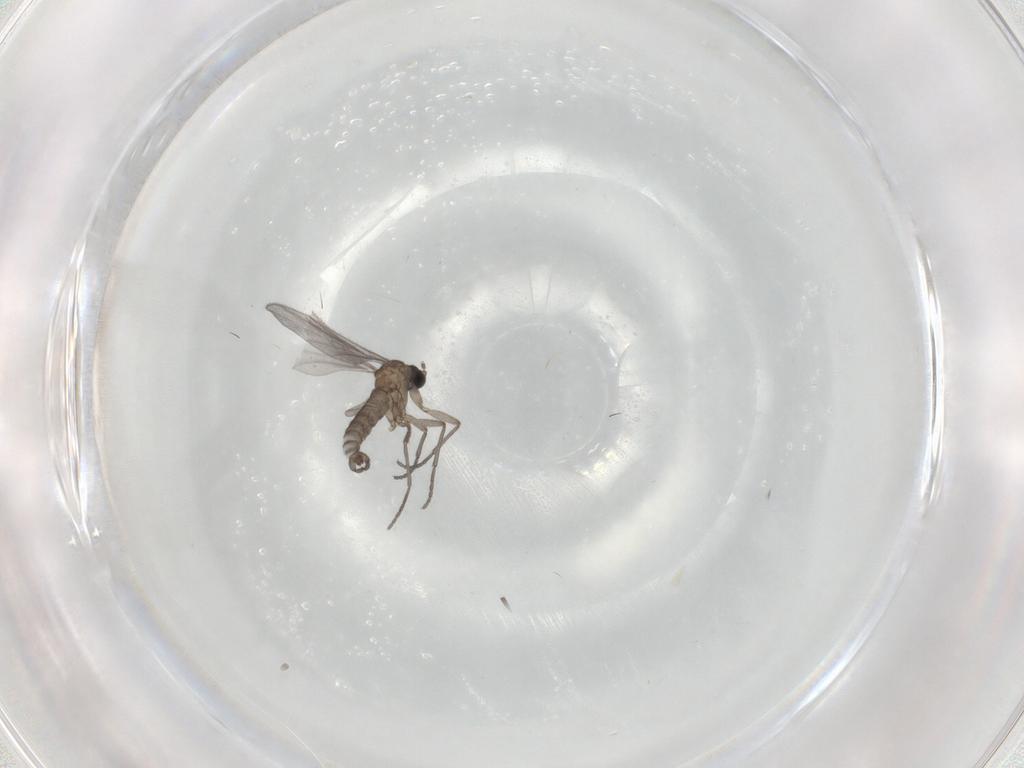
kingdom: Animalia
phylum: Arthropoda
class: Insecta
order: Diptera
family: Sciaridae
